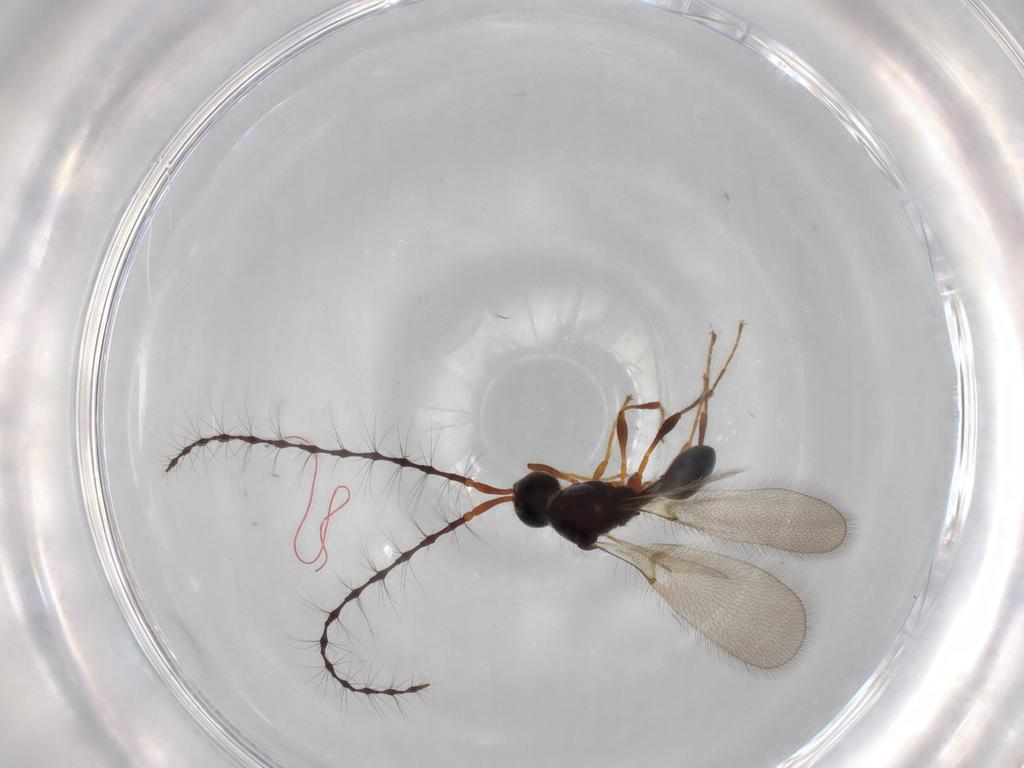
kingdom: Animalia
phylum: Arthropoda
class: Insecta
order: Hymenoptera
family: Diapriidae
